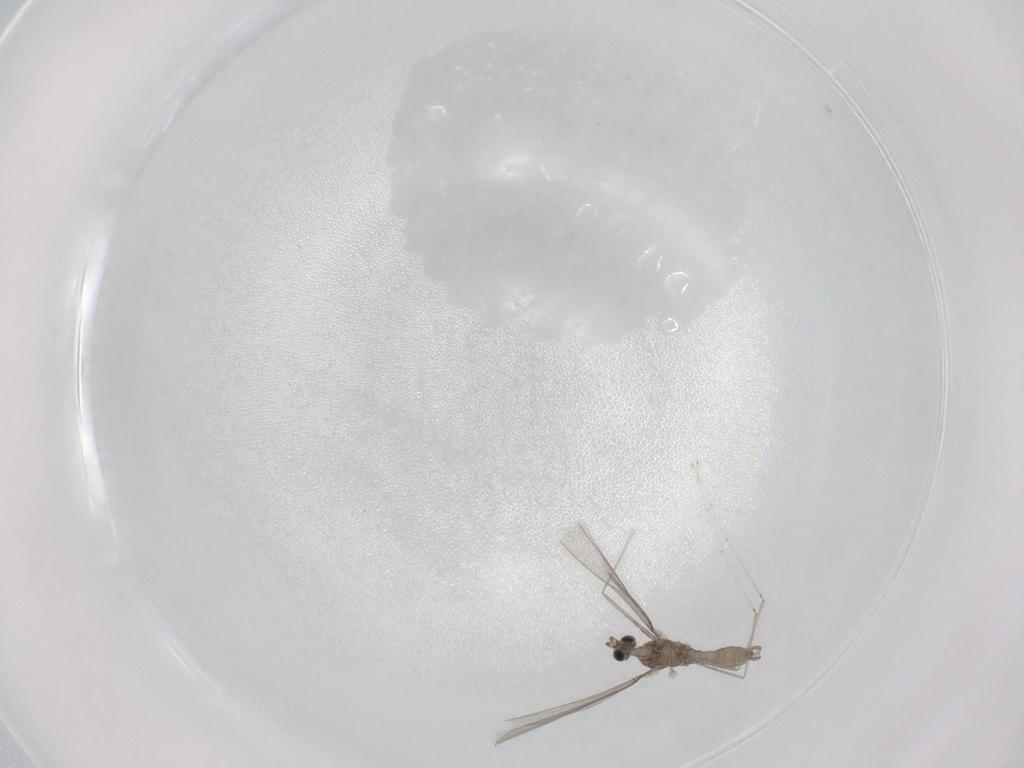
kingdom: Animalia
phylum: Arthropoda
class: Insecta
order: Diptera
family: Cecidomyiidae
